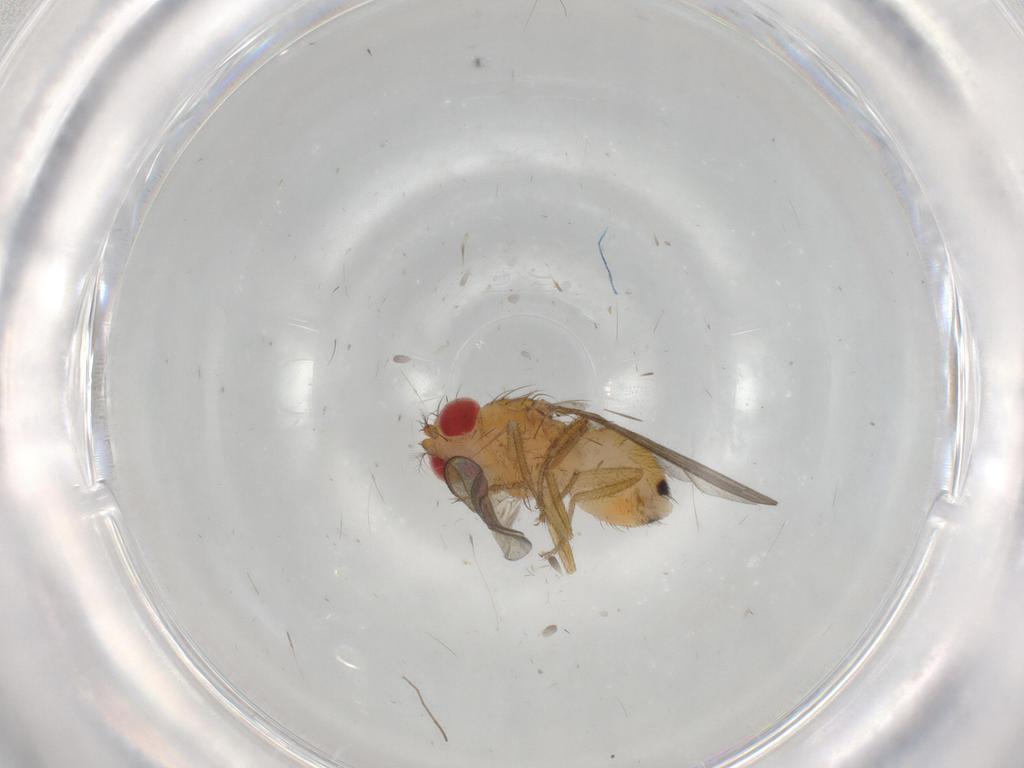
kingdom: Animalia
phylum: Arthropoda
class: Insecta
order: Diptera
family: Drosophilidae
